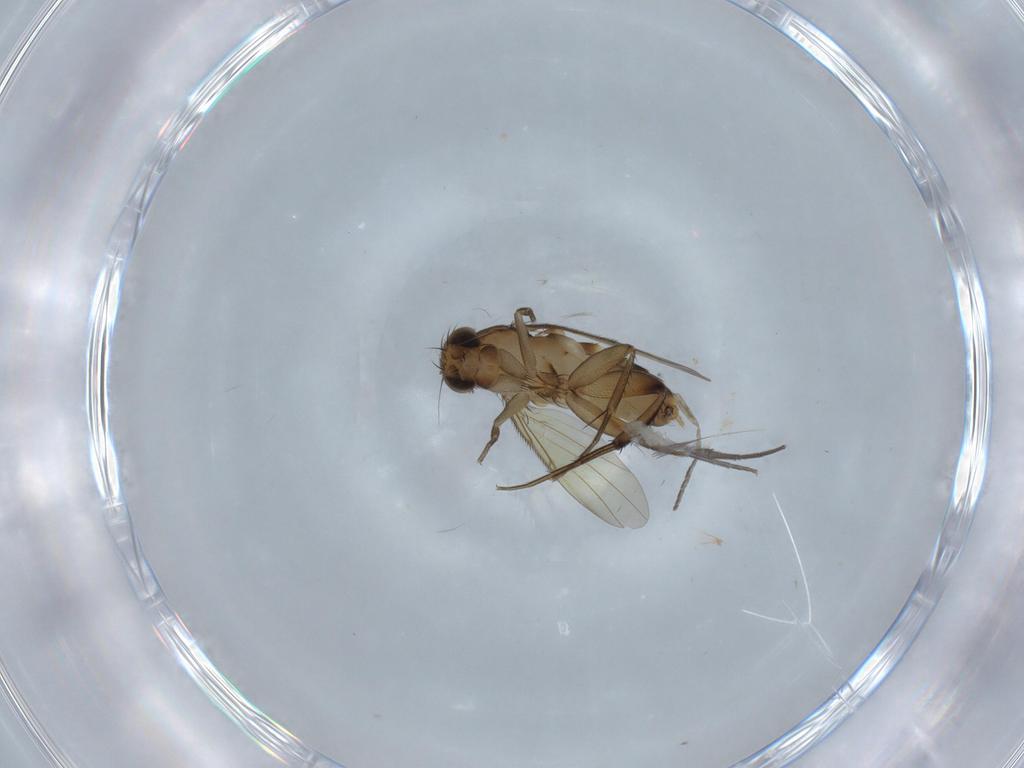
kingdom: Animalia
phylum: Arthropoda
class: Insecta
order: Diptera
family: Phoridae
